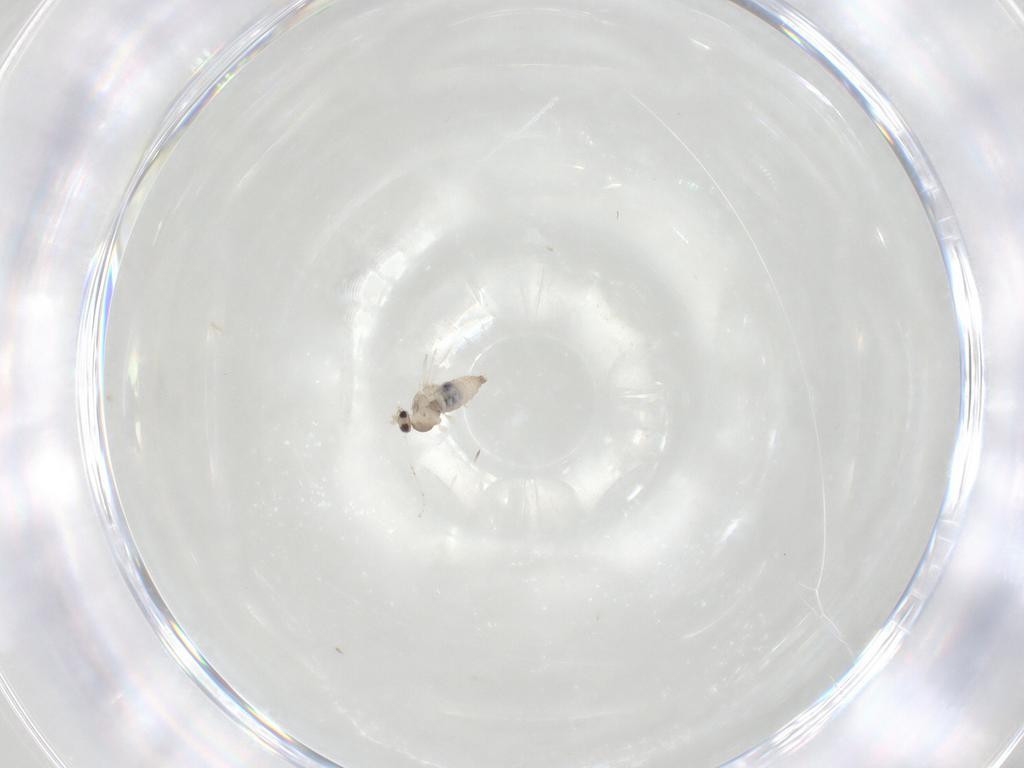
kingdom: Animalia
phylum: Arthropoda
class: Insecta
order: Diptera
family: Cecidomyiidae
